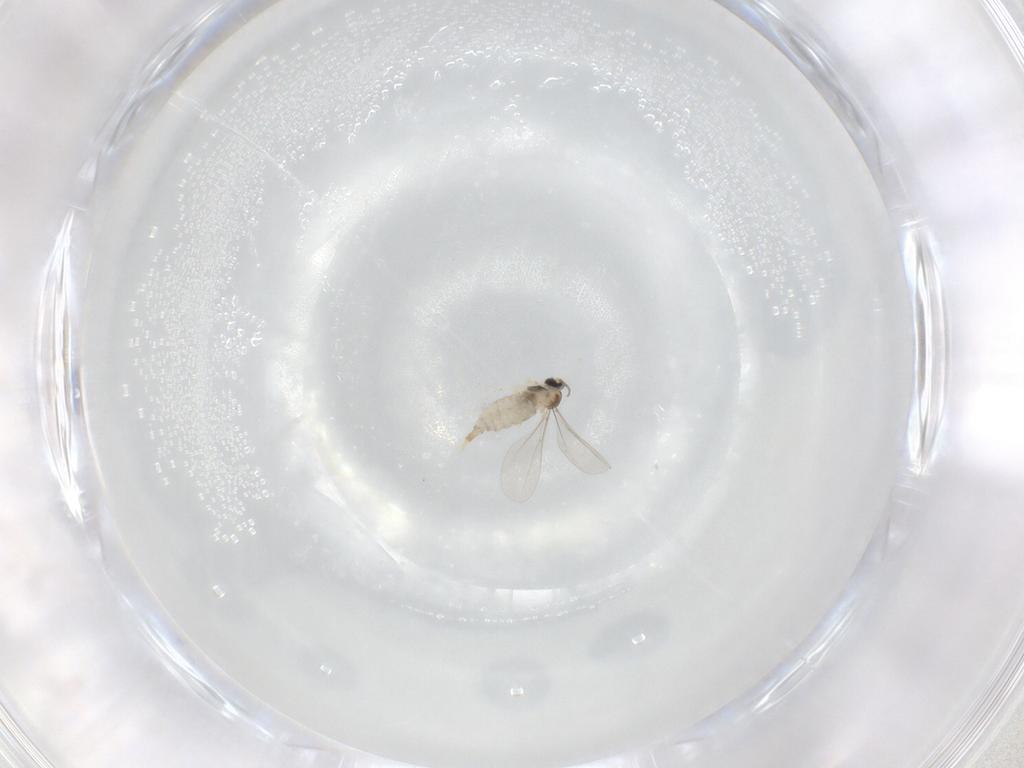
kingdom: Animalia
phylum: Arthropoda
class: Insecta
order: Diptera
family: Cecidomyiidae
